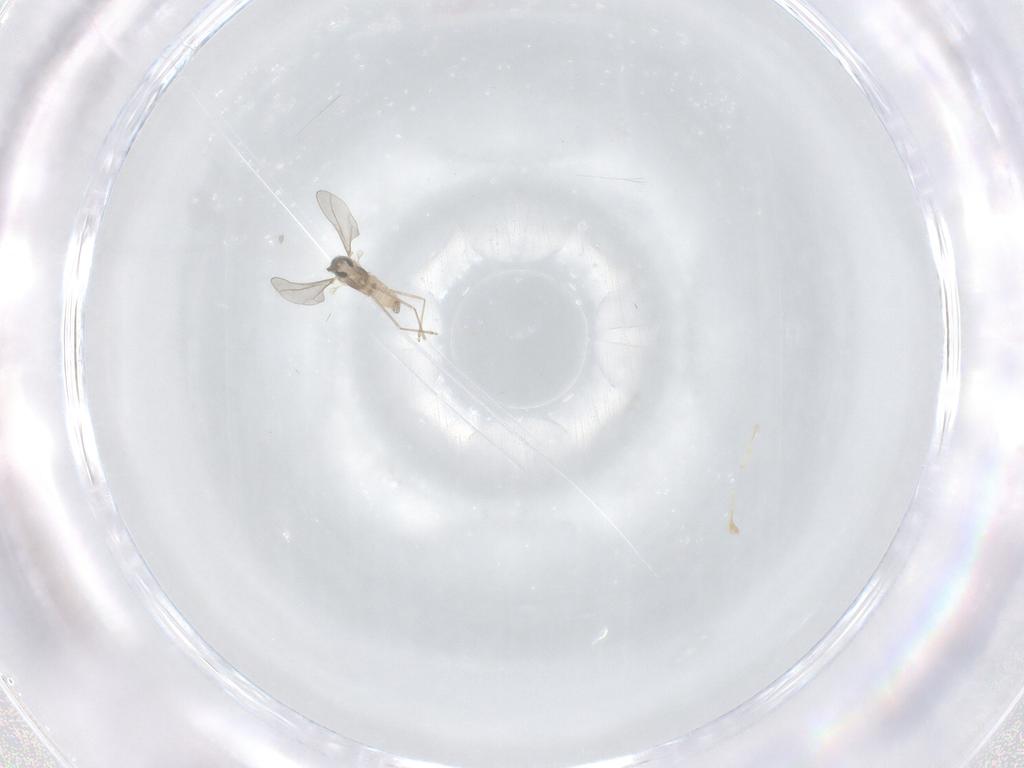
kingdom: Animalia
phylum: Arthropoda
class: Insecta
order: Diptera
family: Cecidomyiidae
